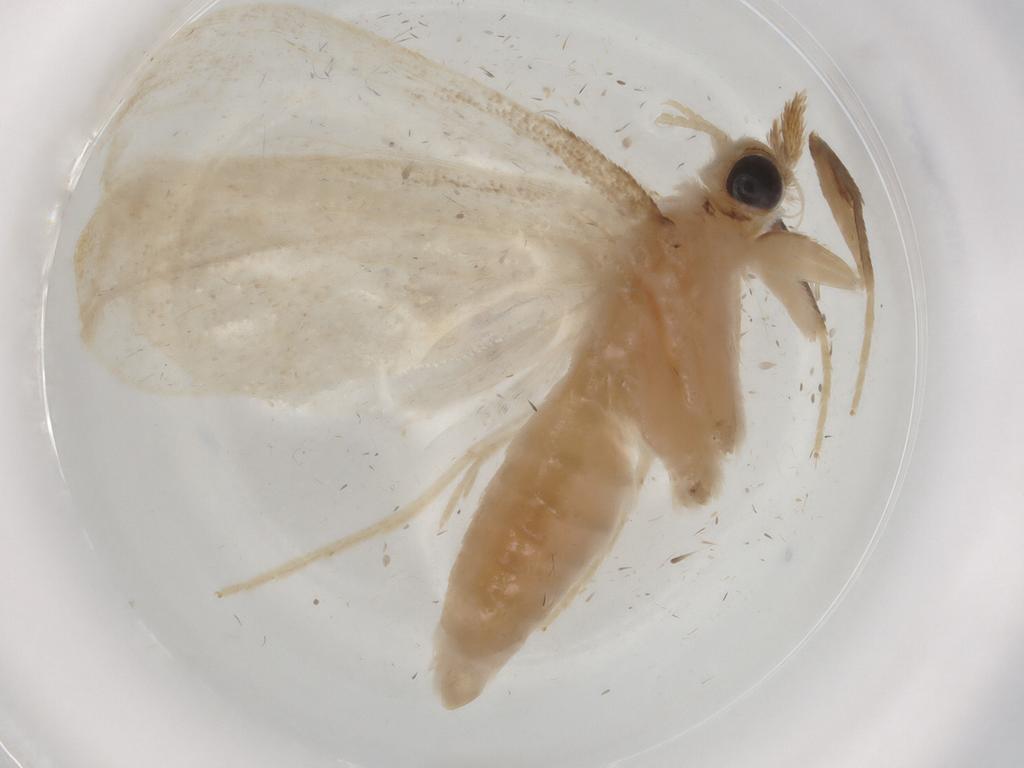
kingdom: Animalia
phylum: Arthropoda
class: Insecta
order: Lepidoptera
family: Crambidae
